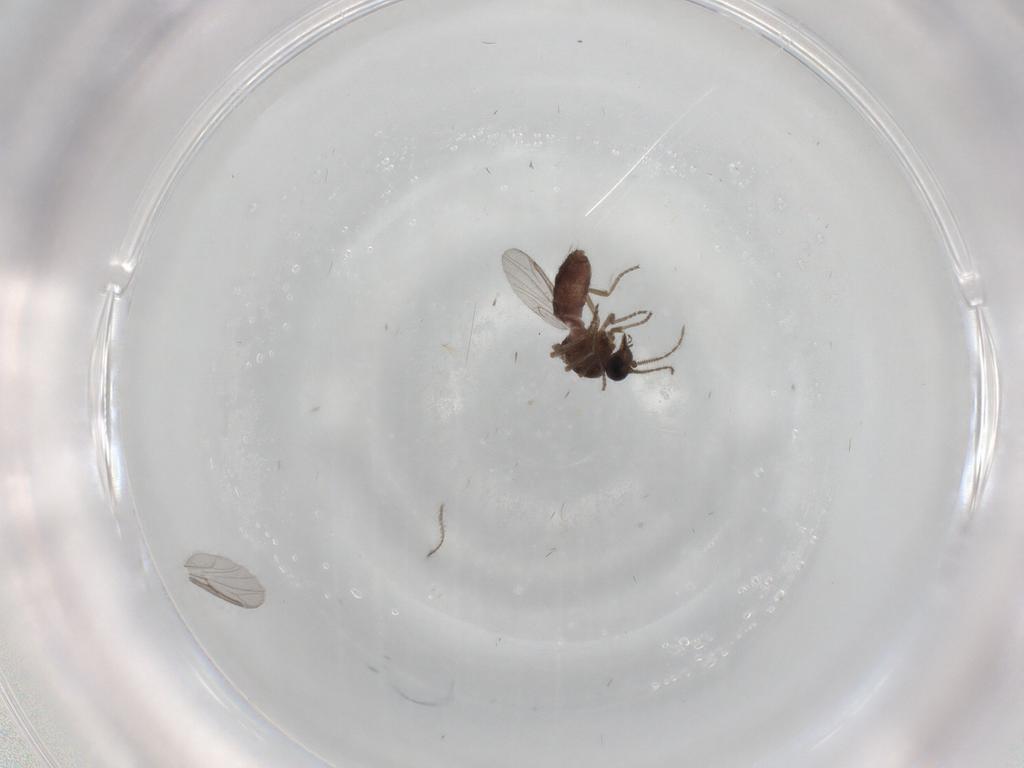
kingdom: Animalia
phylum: Arthropoda
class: Insecta
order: Diptera
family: Ceratopogonidae
